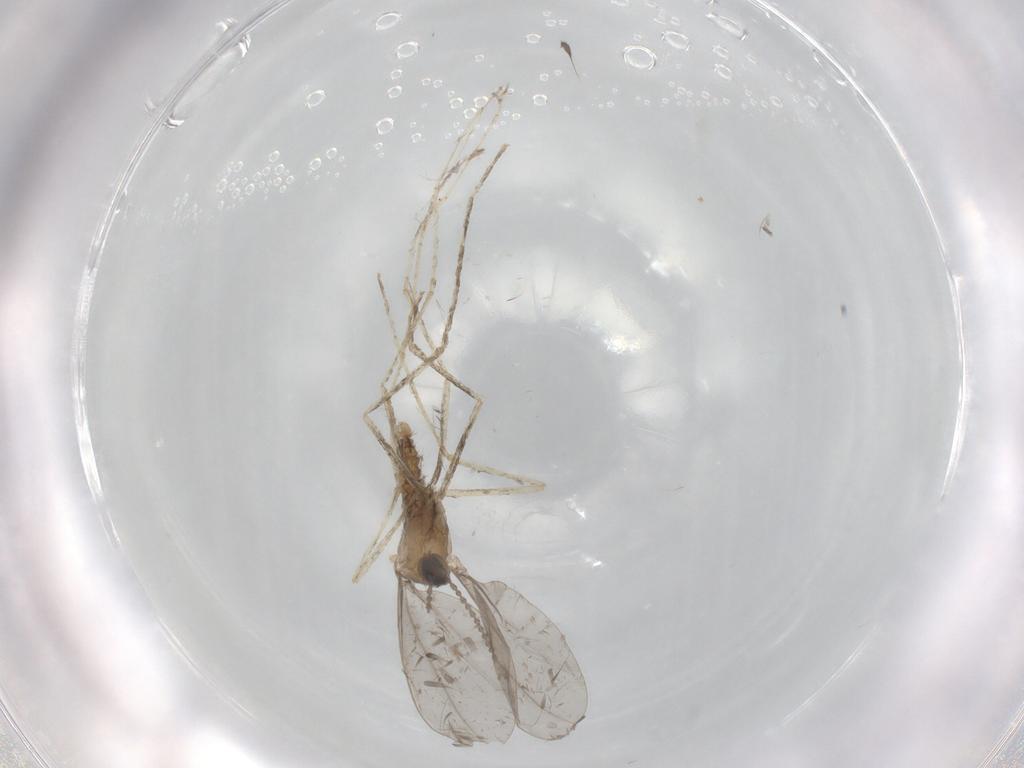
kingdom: Animalia
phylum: Arthropoda
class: Insecta
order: Diptera
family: Cecidomyiidae
